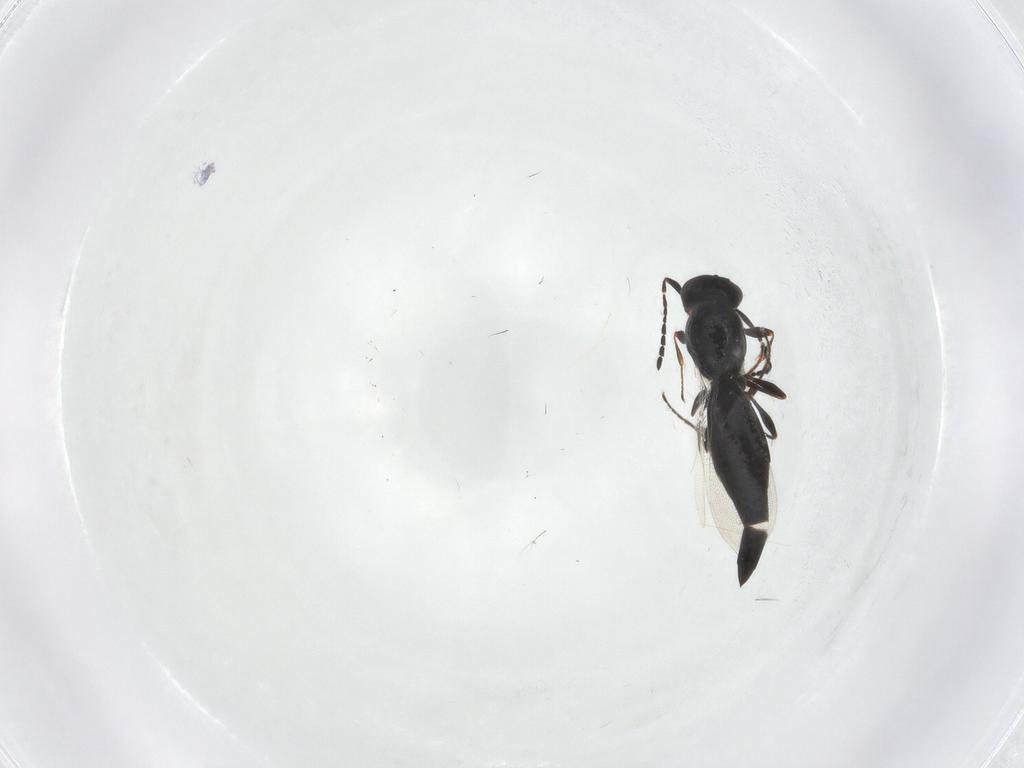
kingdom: Animalia
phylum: Arthropoda
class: Insecta
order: Hymenoptera
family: Platygastridae
